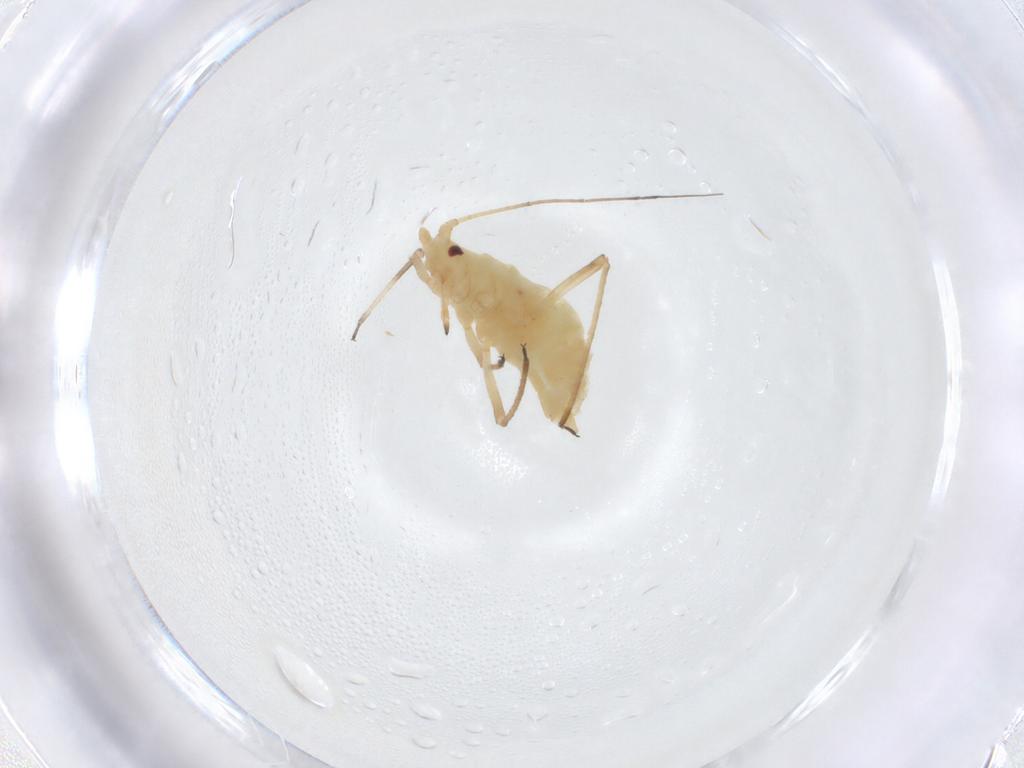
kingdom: Animalia
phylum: Arthropoda
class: Insecta
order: Hemiptera
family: Aphididae
